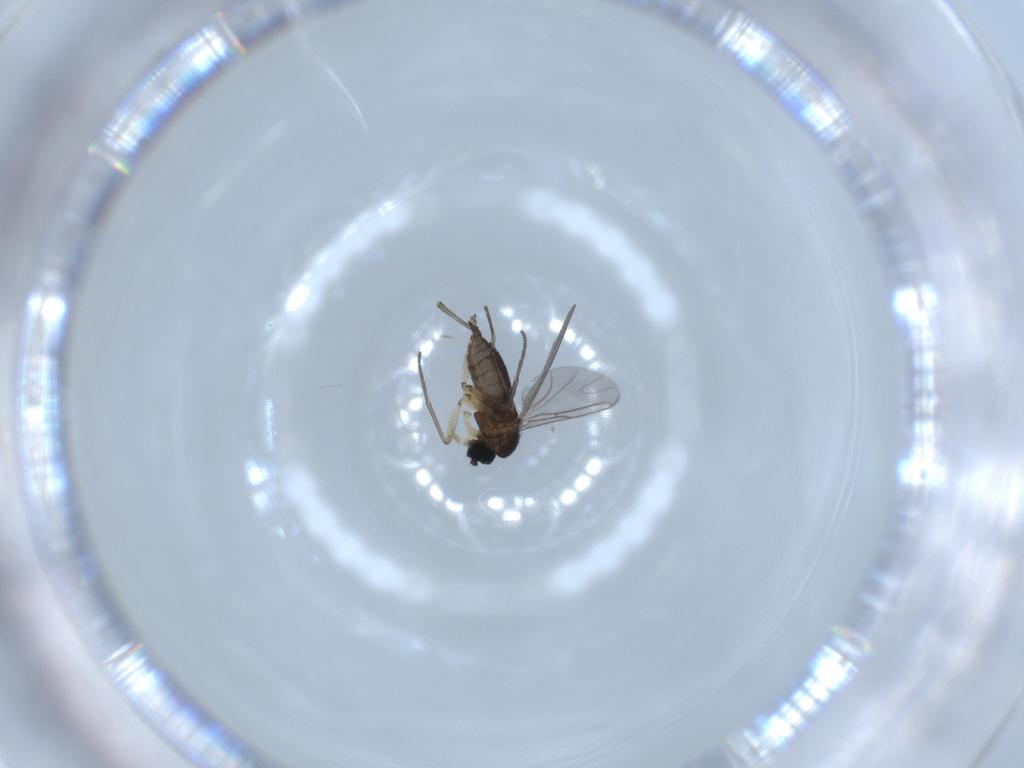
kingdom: Animalia
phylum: Arthropoda
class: Insecta
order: Diptera
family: Sciaridae
